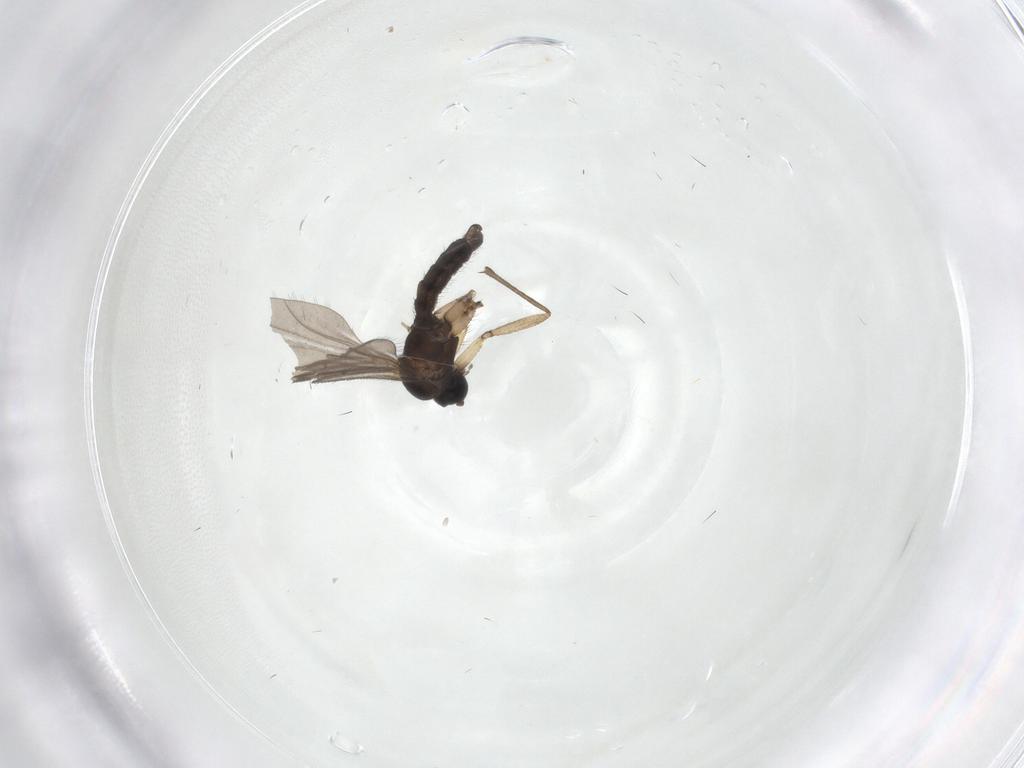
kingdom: Animalia
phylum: Arthropoda
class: Insecta
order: Diptera
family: Sciaridae
